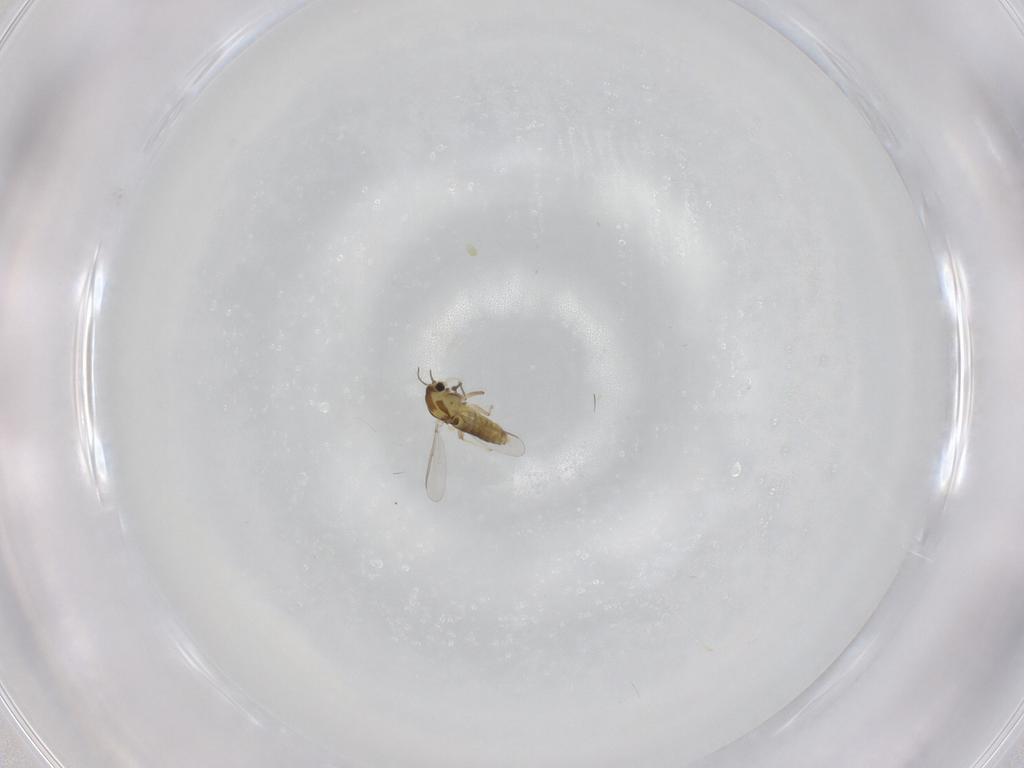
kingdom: Animalia
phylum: Arthropoda
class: Insecta
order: Diptera
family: Chironomidae
